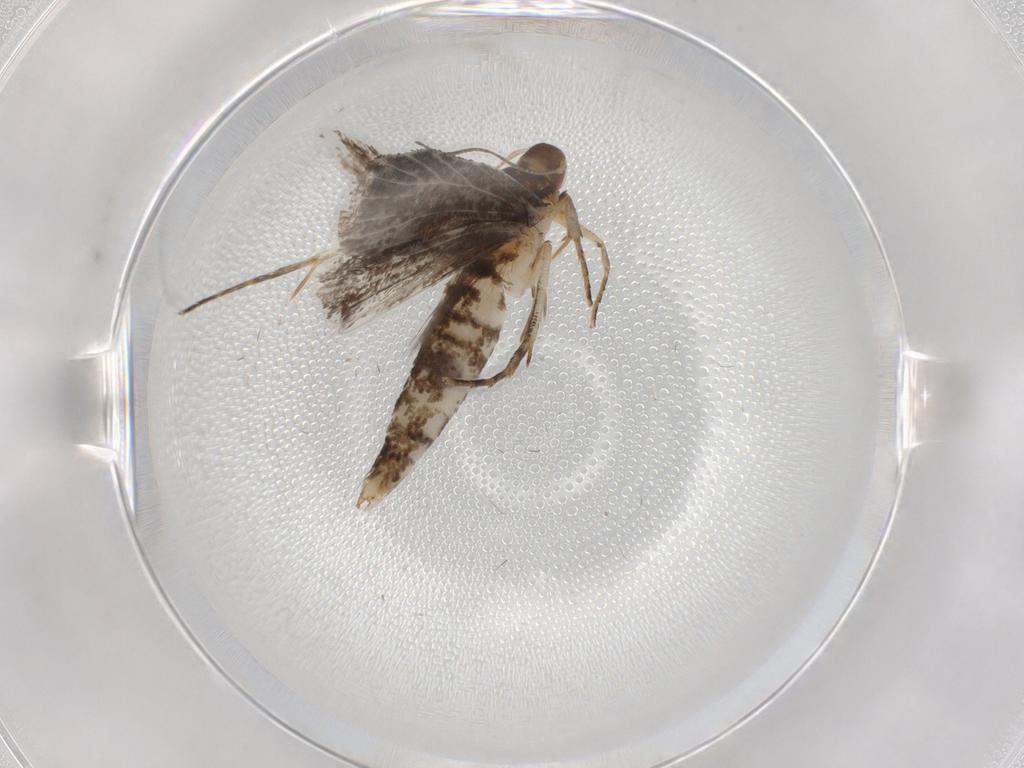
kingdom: Animalia
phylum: Arthropoda
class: Insecta
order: Lepidoptera
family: Gelechiidae
